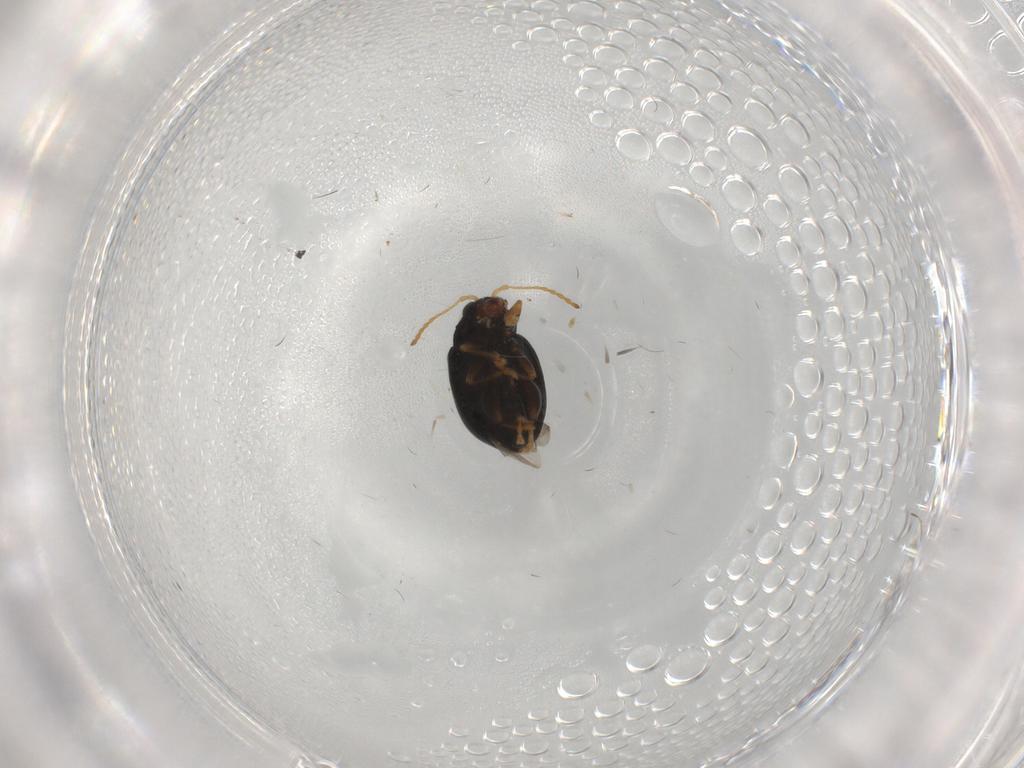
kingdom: Animalia
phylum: Arthropoda
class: Insecta
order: Coleoptera
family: Chrysomelidae
